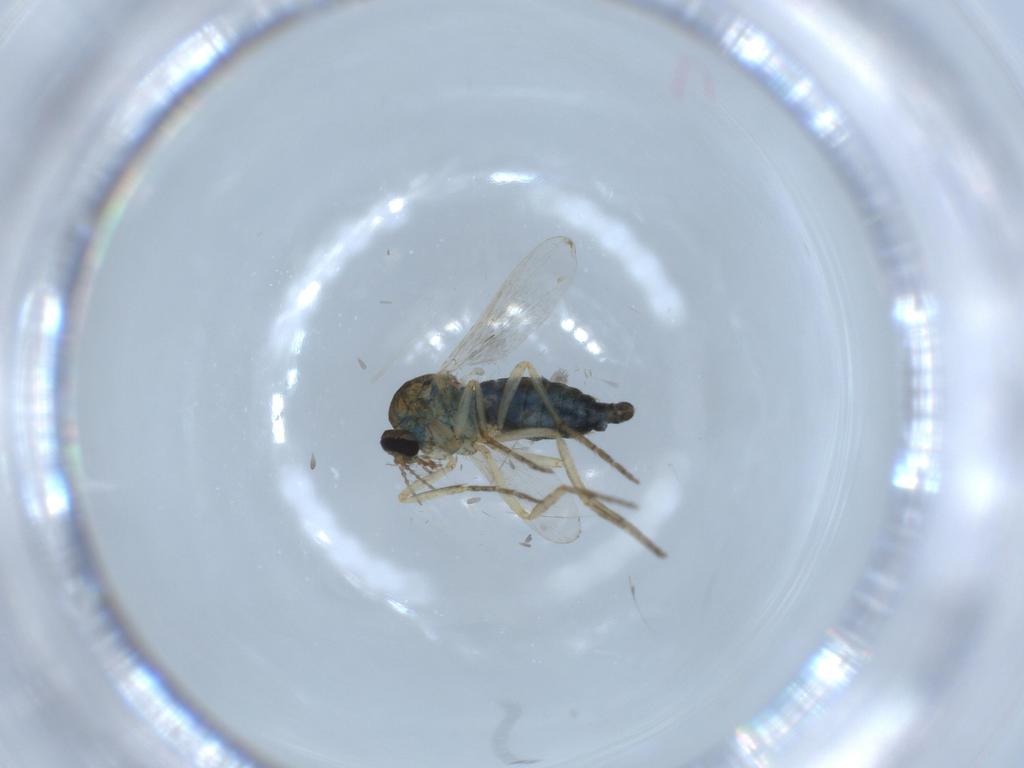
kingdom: Animalia
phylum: Arthropoda
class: Insecta
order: Diptera
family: Ceratopogonidae
